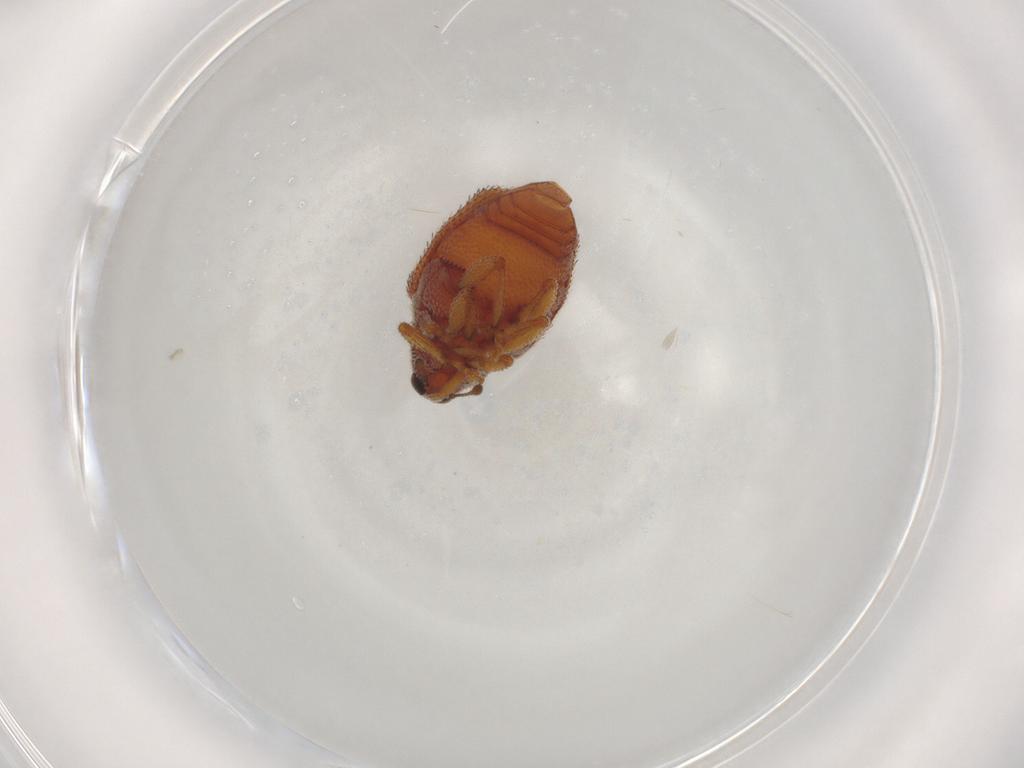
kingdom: Animalia
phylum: Arthropoda
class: Insecta
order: Coleoptera
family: Curculionidae
